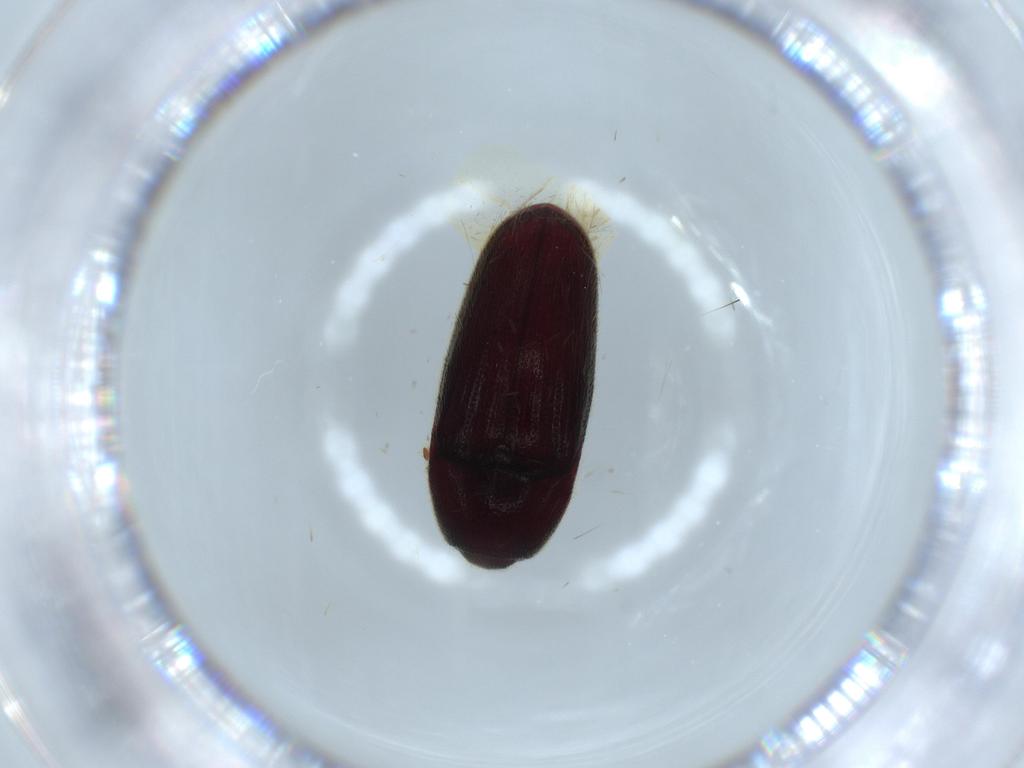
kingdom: Animalia
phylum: Arthropoda
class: Insecta
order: Coleoptera
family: Throscidae
